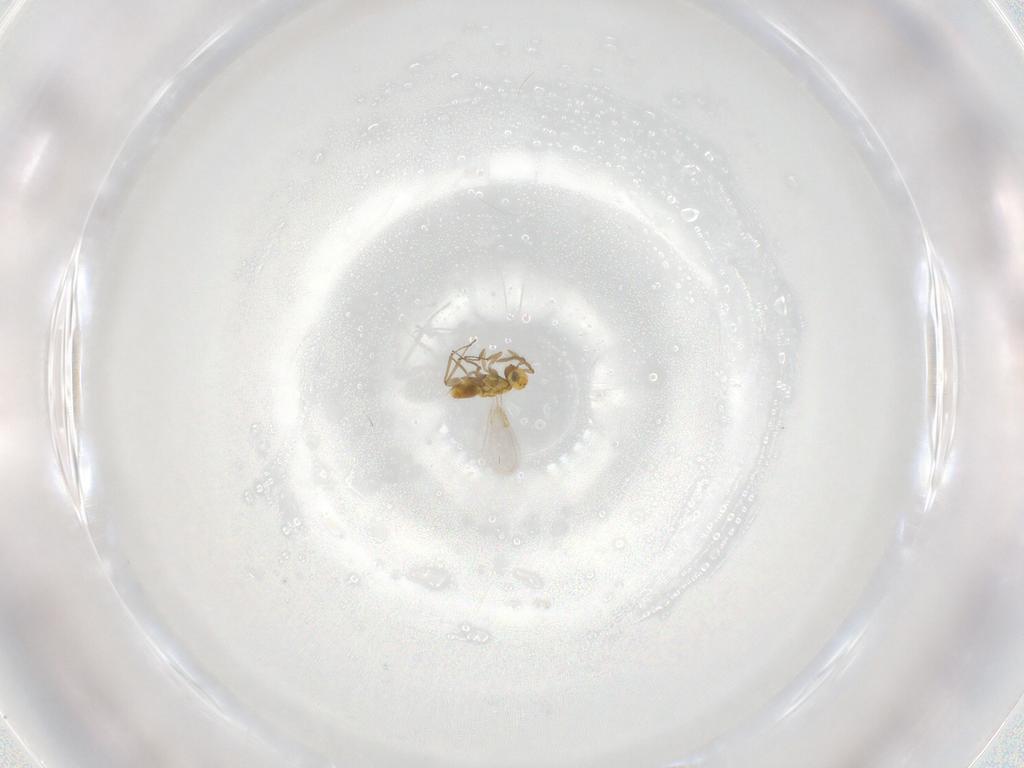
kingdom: Animalia
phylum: Arthropoda
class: Insecta
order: Hymenoptera
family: Aphelinidae
